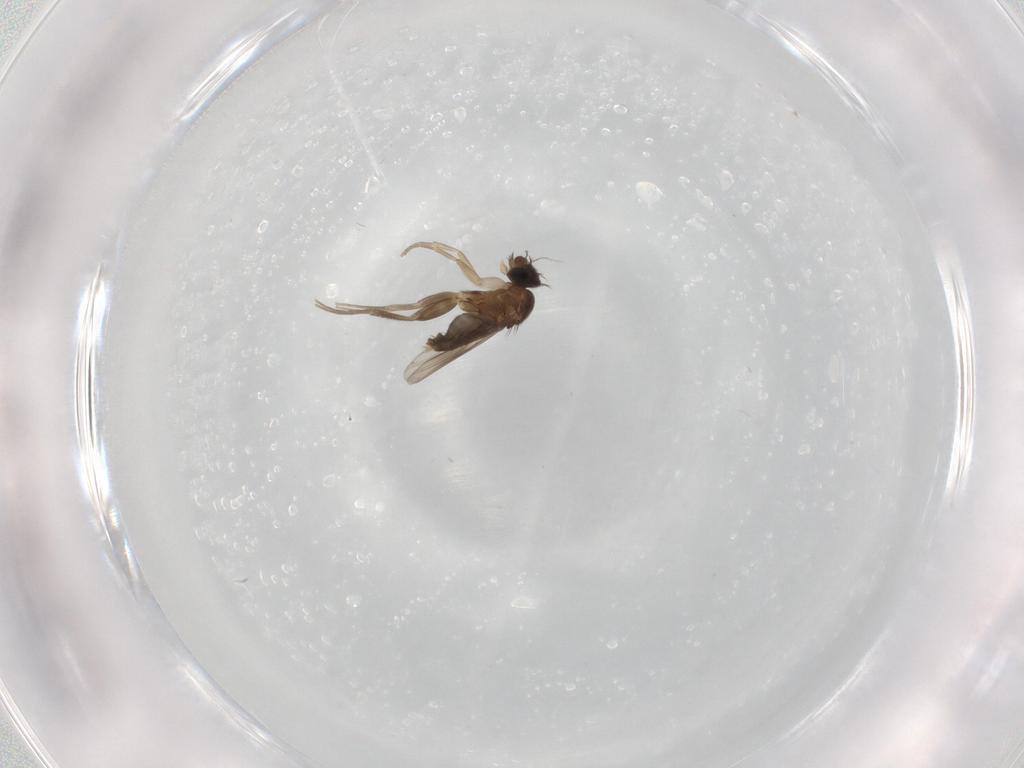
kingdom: Animalia
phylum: Arthropoda
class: Insecta
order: Diptera
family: Phoridae
